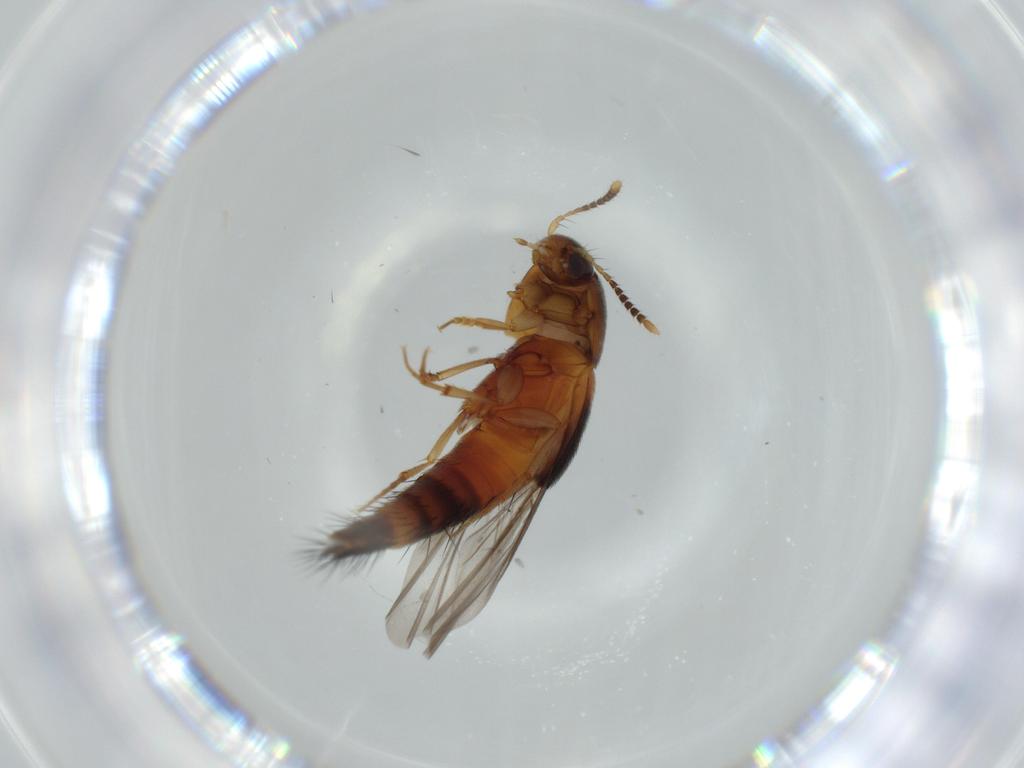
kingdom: Animalia
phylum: Arthropoda
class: Insecta
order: Coleoptera
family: Staphylinidae
